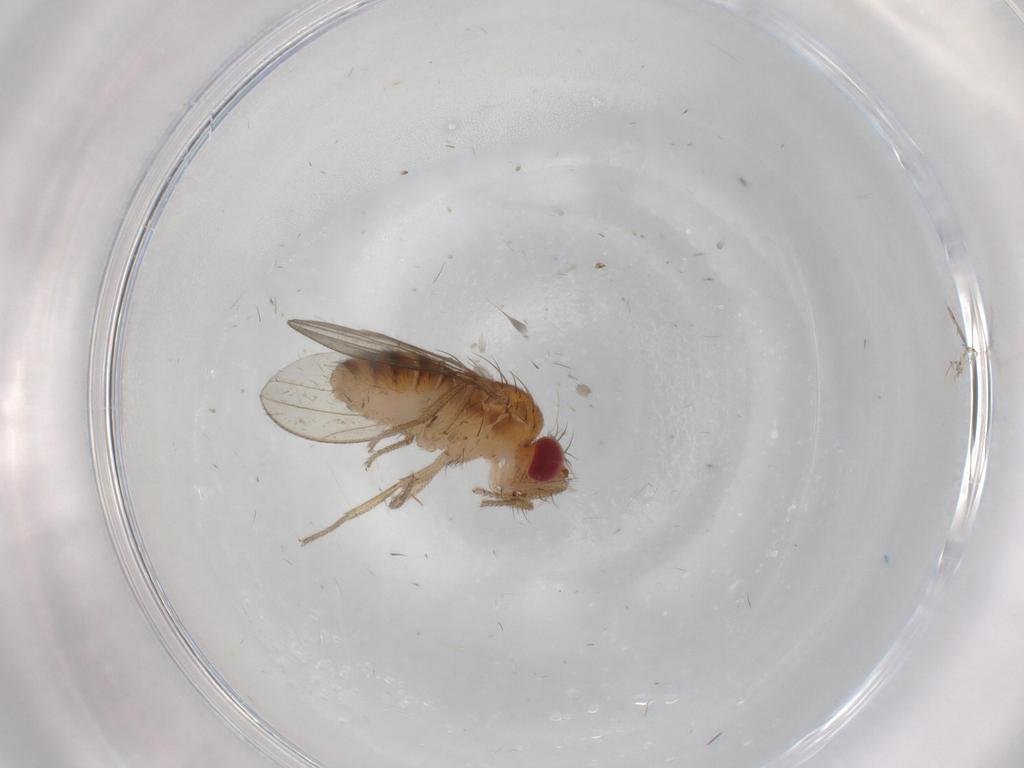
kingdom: Animalia
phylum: Arthropoda
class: Insecta
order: Diptera
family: Drosophilidae
